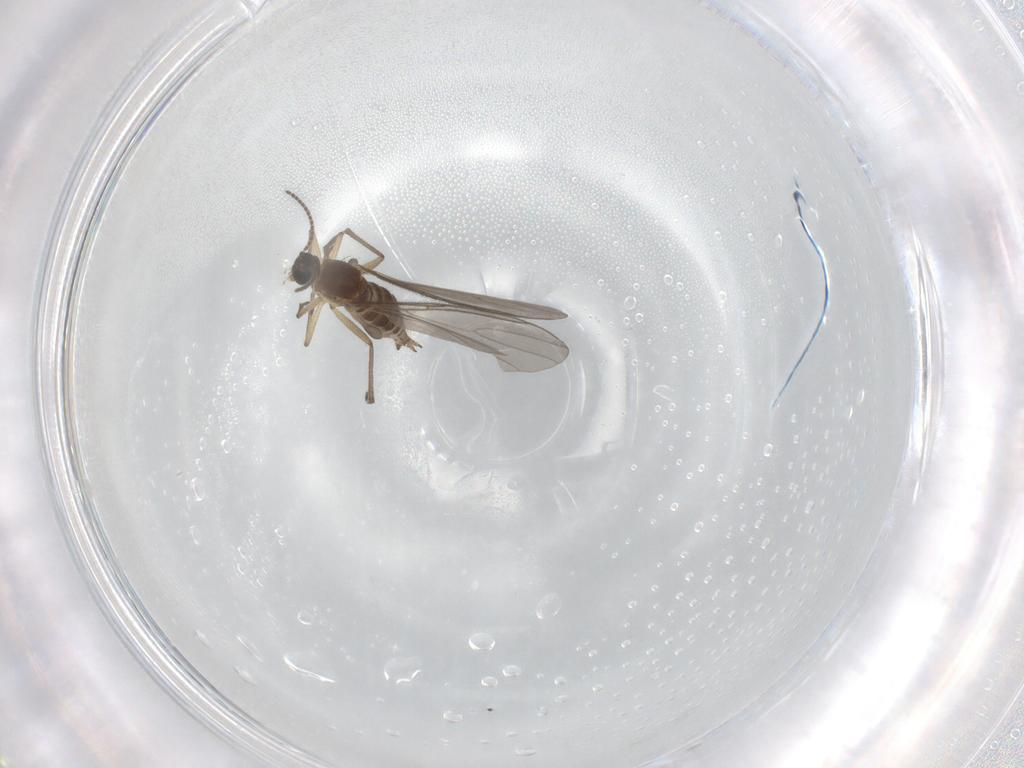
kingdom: Animalia
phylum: Arthropoda
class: Insecta
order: Diptera
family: Sciaridae
